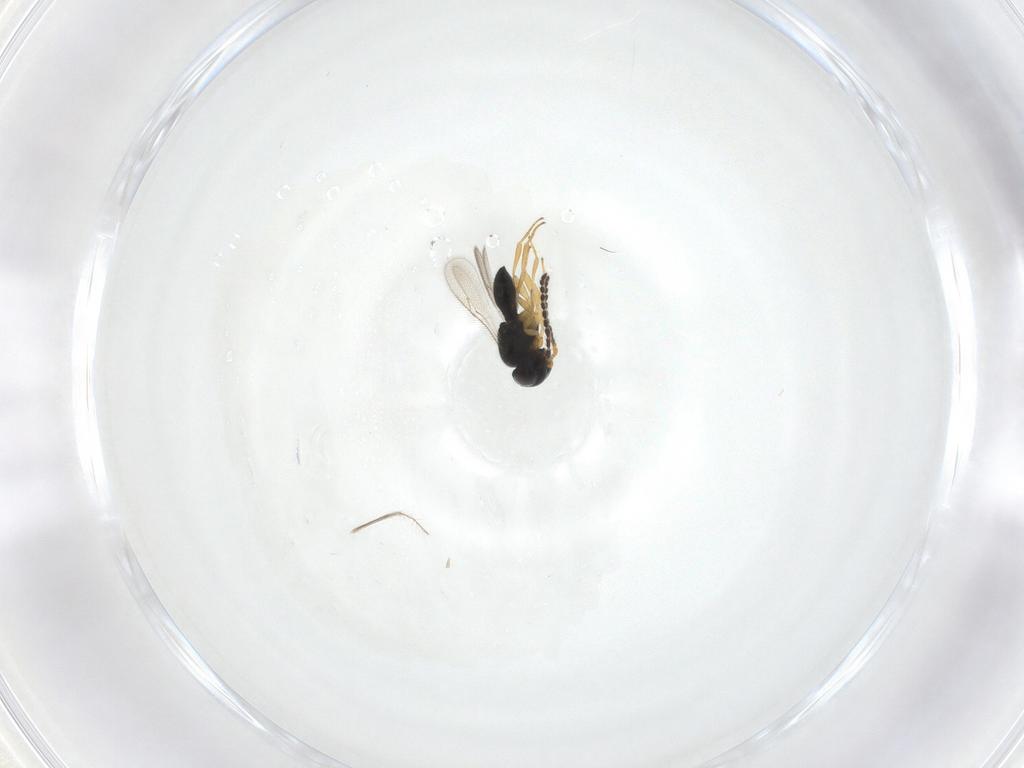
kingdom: Animalia
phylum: Arthropoda
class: Insecta
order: Hymenoptera
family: Scelionidae
